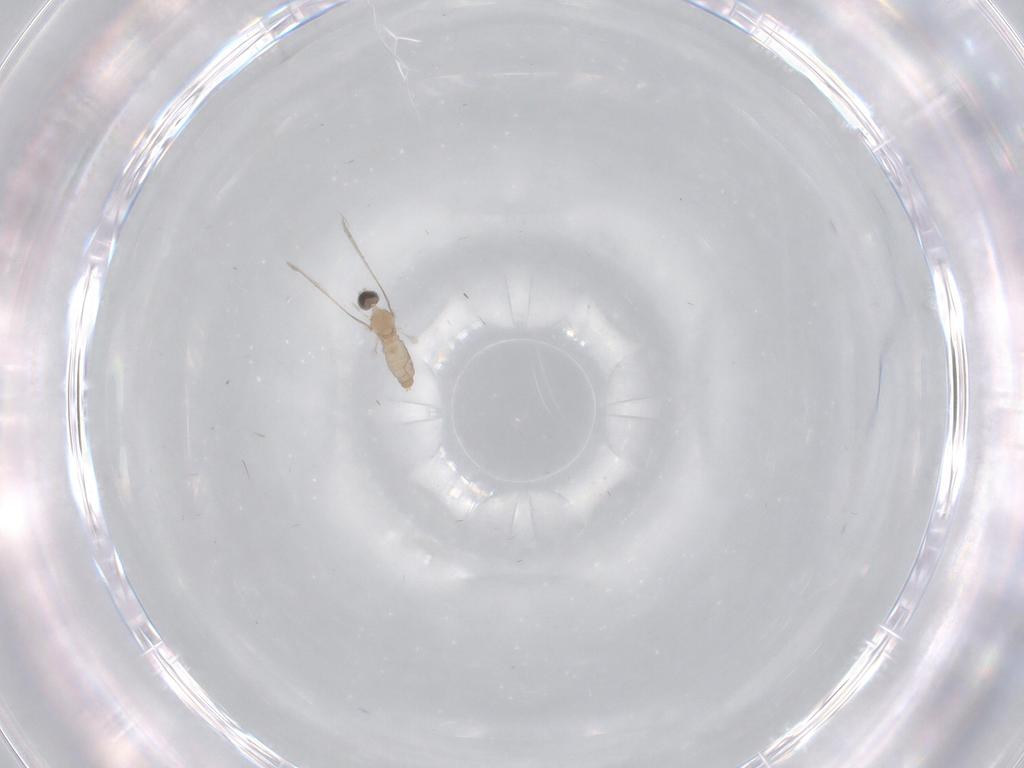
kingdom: Animalia
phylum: Arthropoda
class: Insecta
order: Diptera
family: Cecidomyiidae
